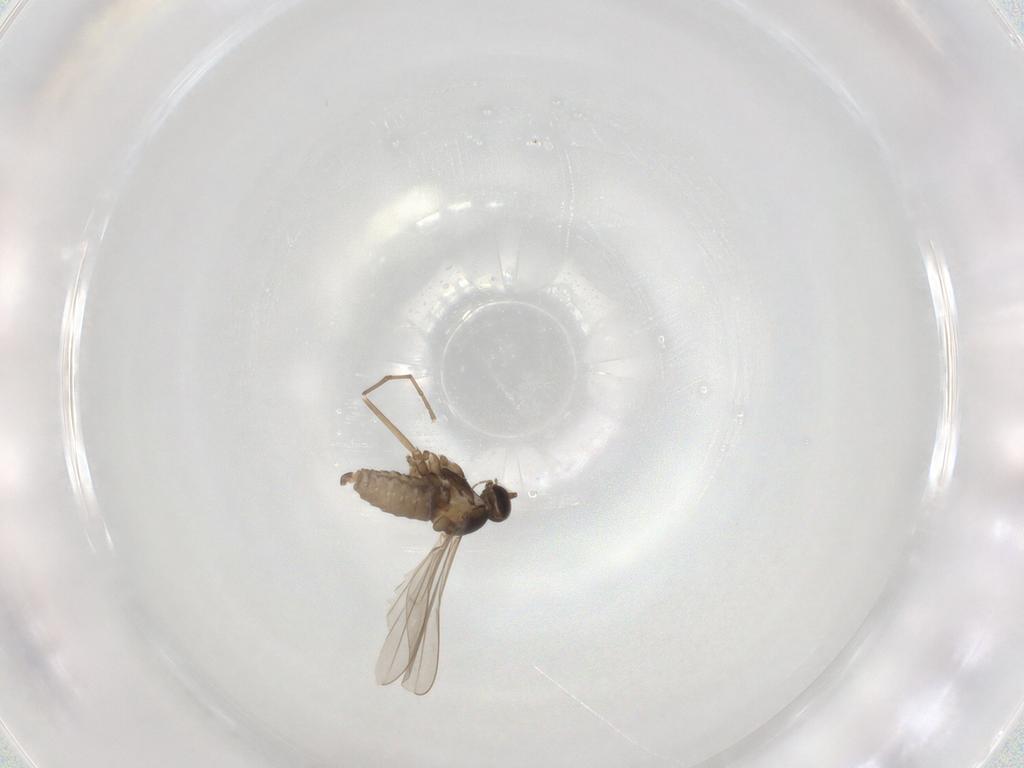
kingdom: Animalia
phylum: Arthropoda
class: Insecta
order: Diptera
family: Cecidomyiidae
